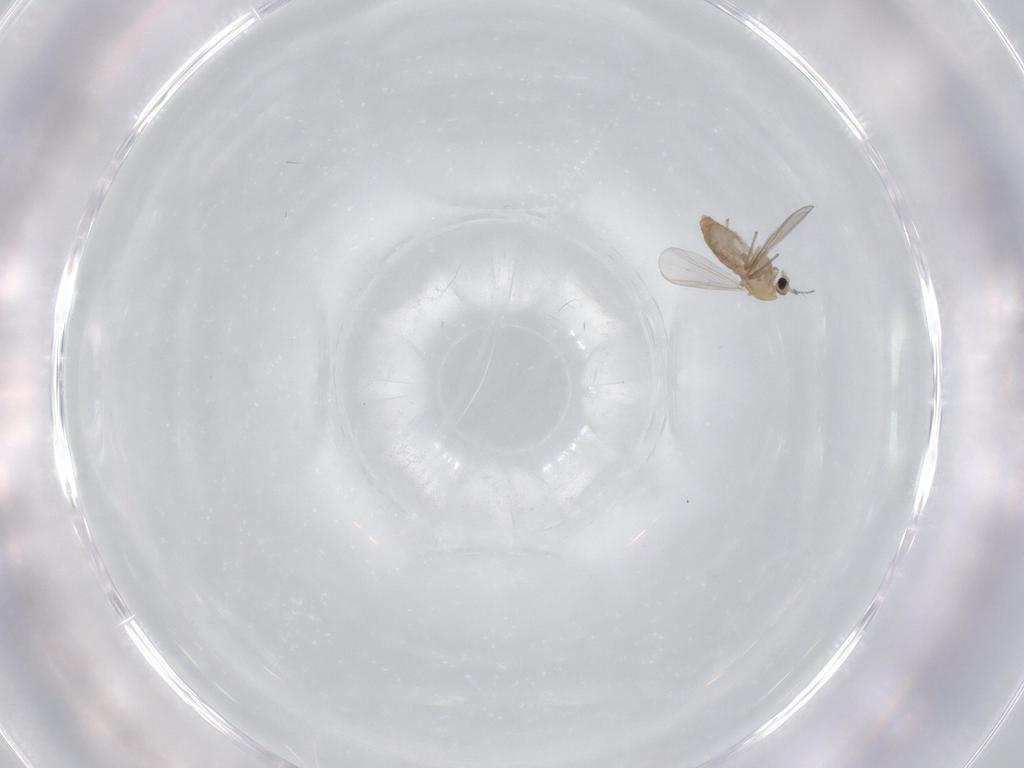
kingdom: Animalia
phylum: Arthropoda
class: Insecta
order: Diptera
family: Chironomidae
